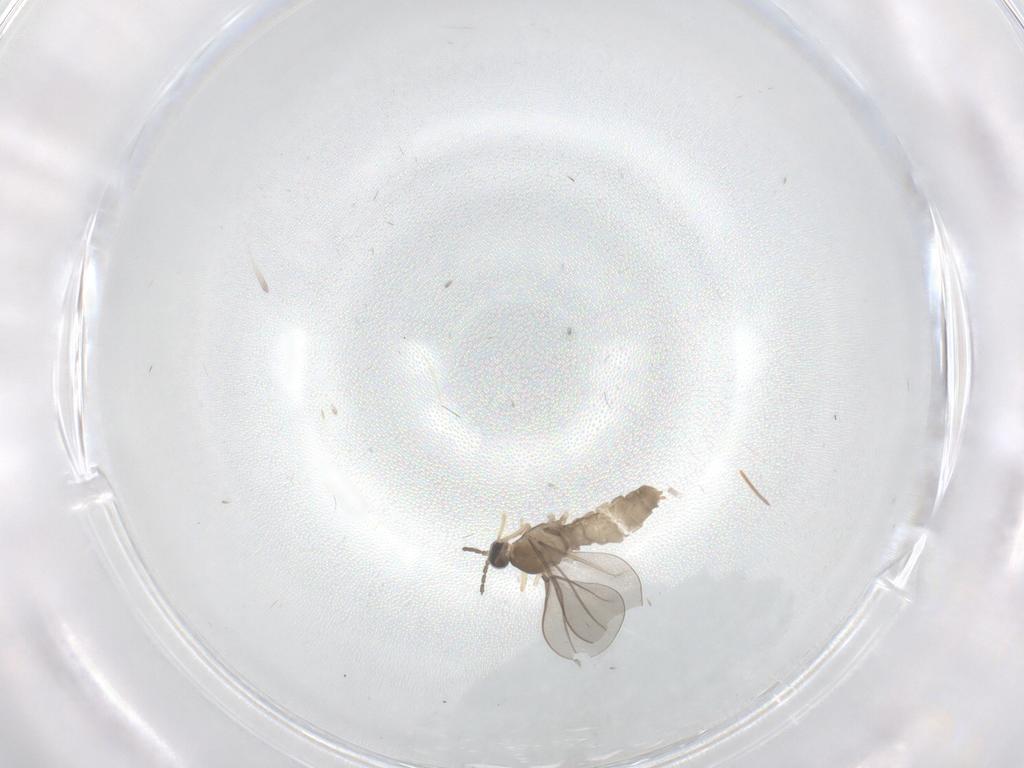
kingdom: Animalia
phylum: Arthropoda
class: Insecta
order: Diptera
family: Cecidomyiidae
